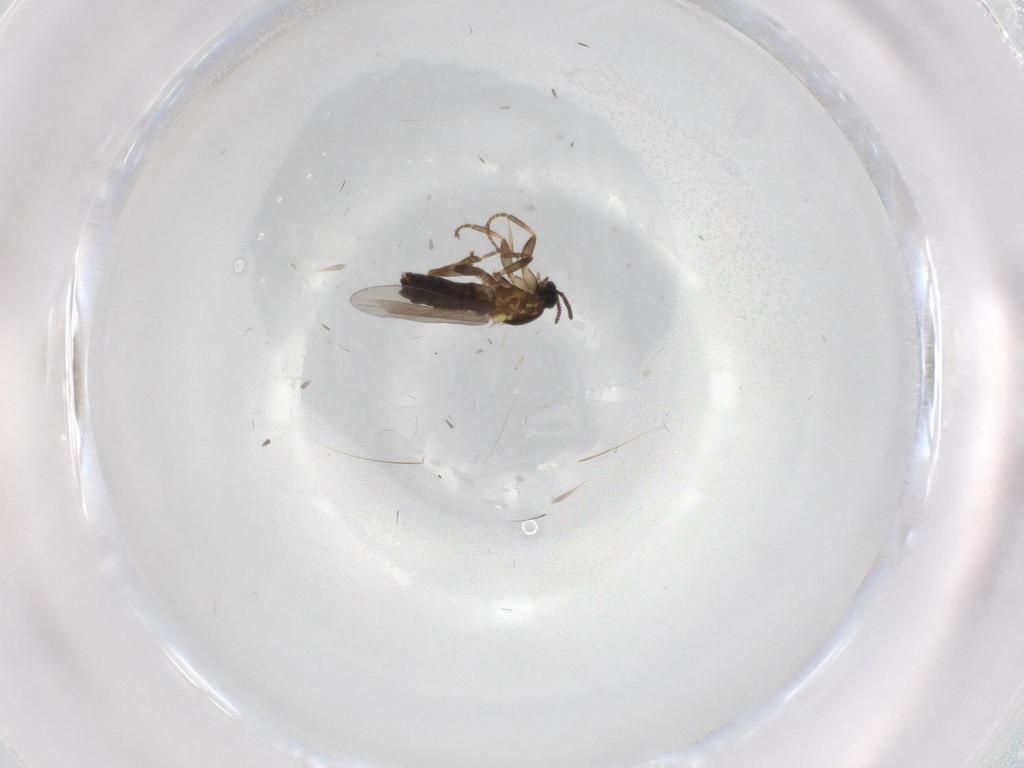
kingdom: Animalia
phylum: Arthropoda
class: Insecta
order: Diptera
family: Scatopsidae
